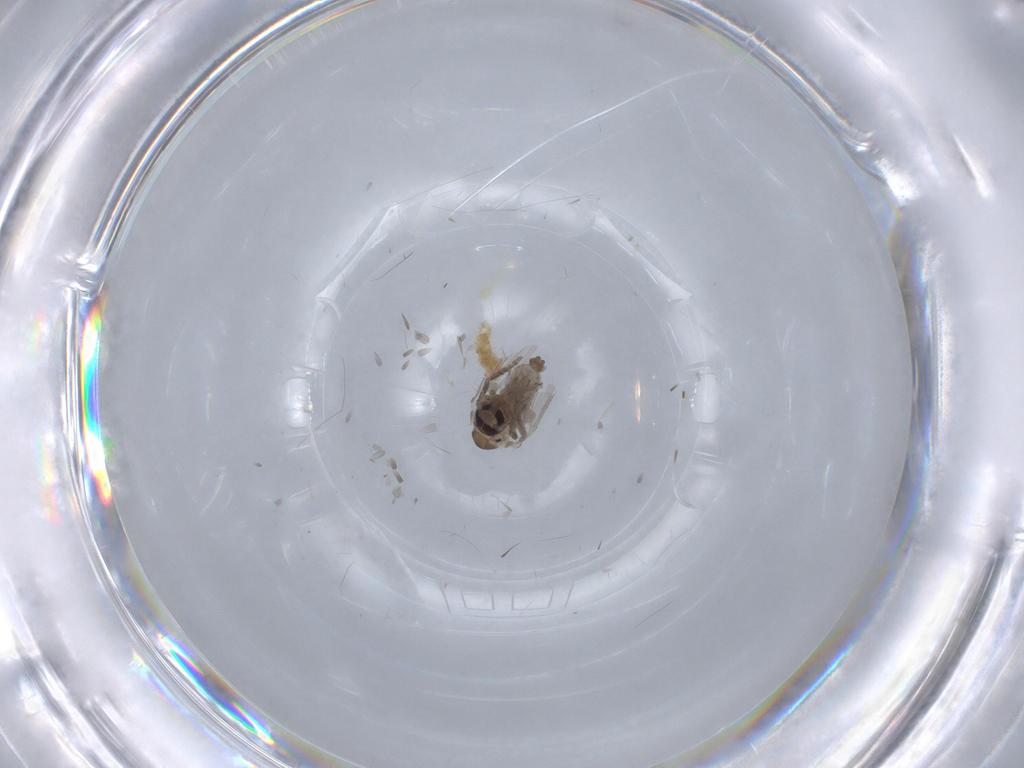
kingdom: Animalia
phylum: Arthropoda
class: Insecta
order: Diptera
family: Psychodidae
